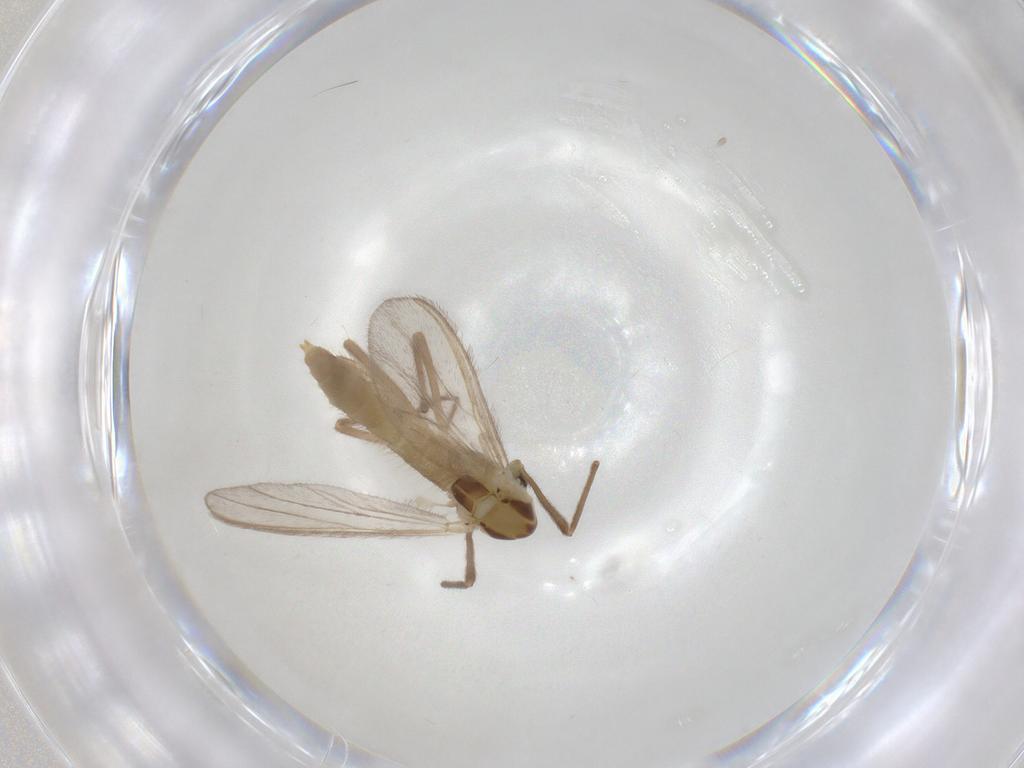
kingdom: Animalia
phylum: Arthropoda
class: Insecta
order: Diptera
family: Chironomidae
